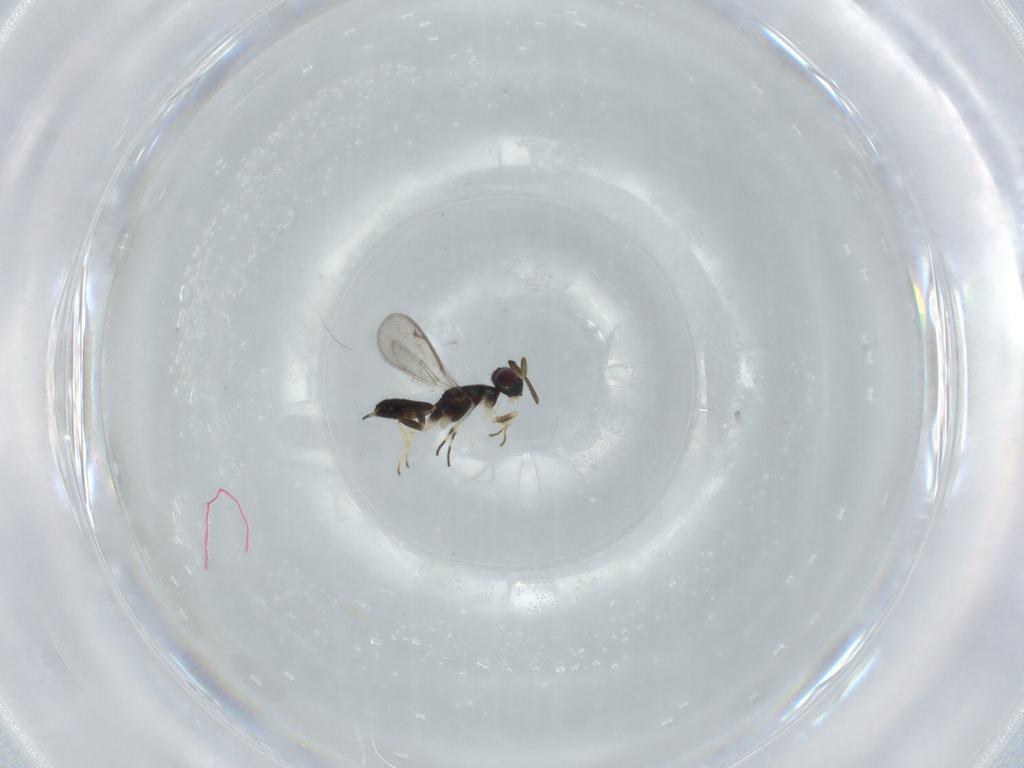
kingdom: Animalia
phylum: Arthropoda
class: Insecta
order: Hymenoptera
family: Eupelmidae
